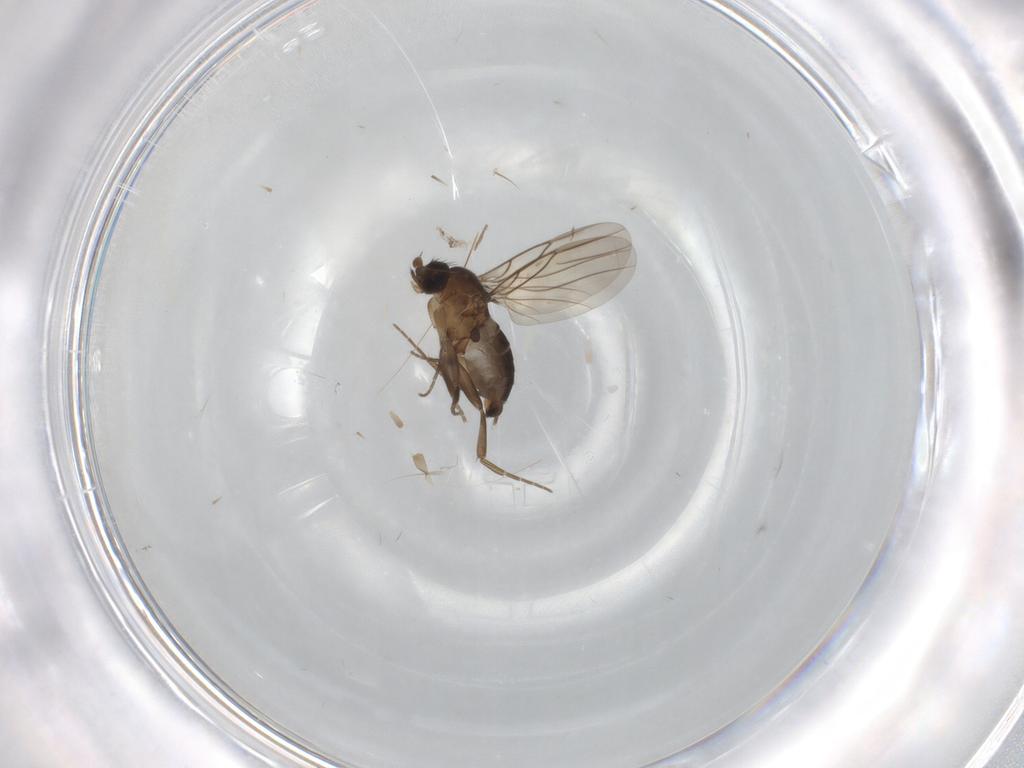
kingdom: Animalia
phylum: Arthropoda
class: Insecta
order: Diptera
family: Phoridae
